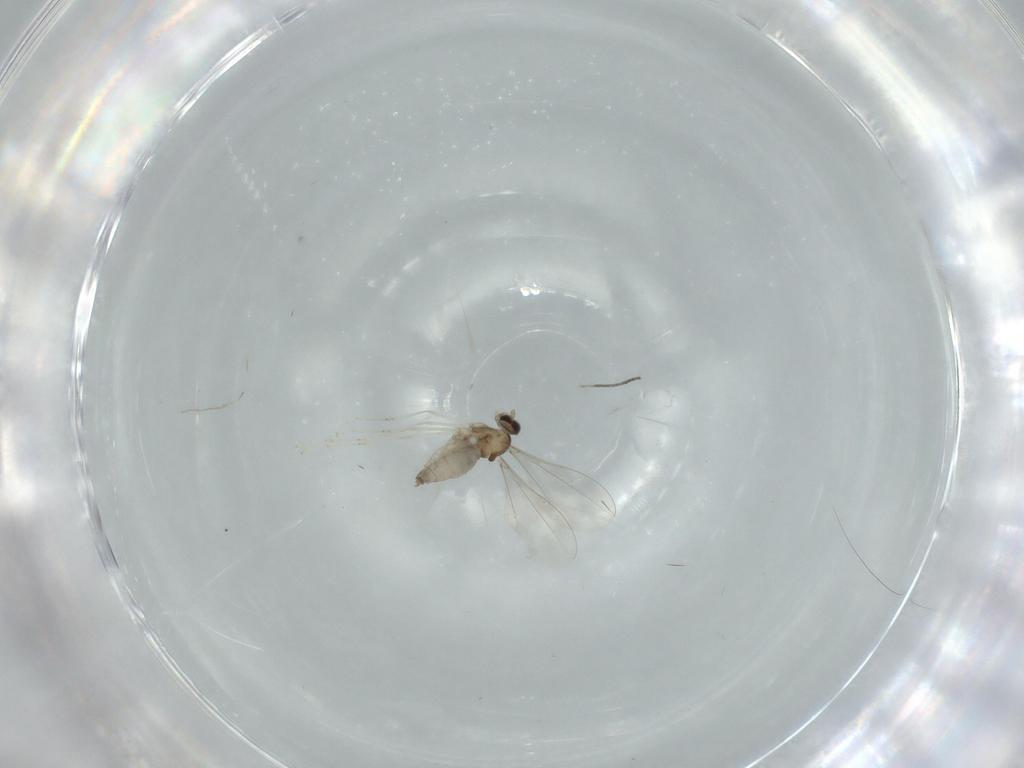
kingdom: Animalia
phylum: Arthropoda
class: Insecta
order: Diptera
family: Cecidomyiidae
